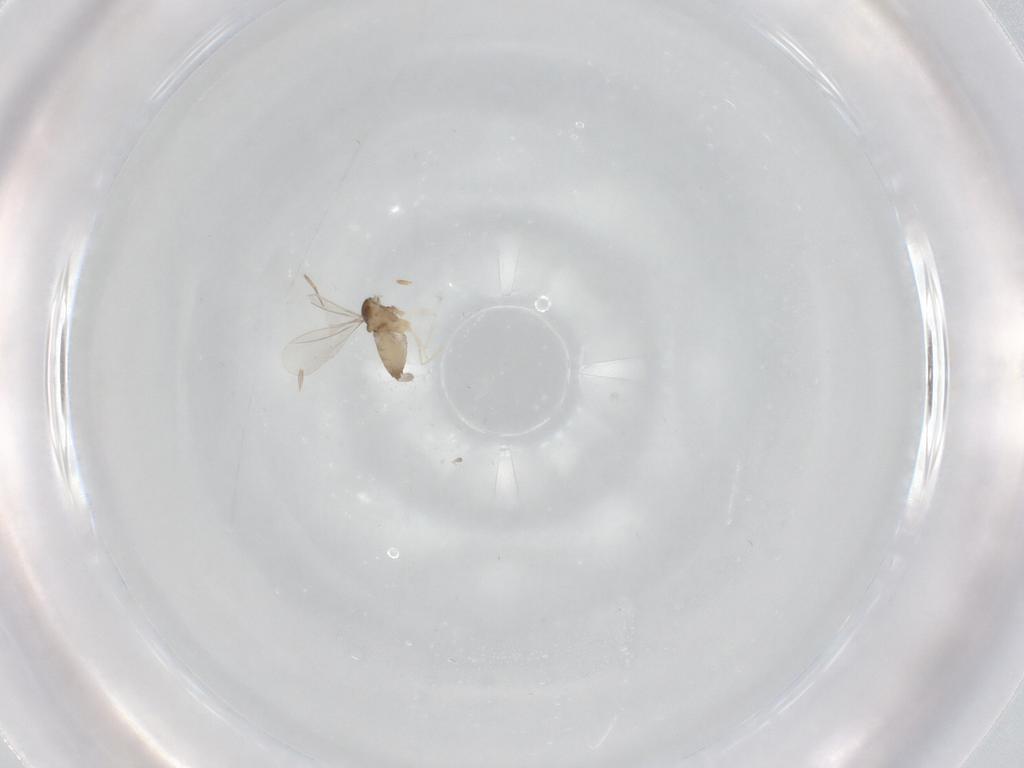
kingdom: Animalia
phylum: Arthropoda
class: Insecta
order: Diptera
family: Cecidomyiidae
